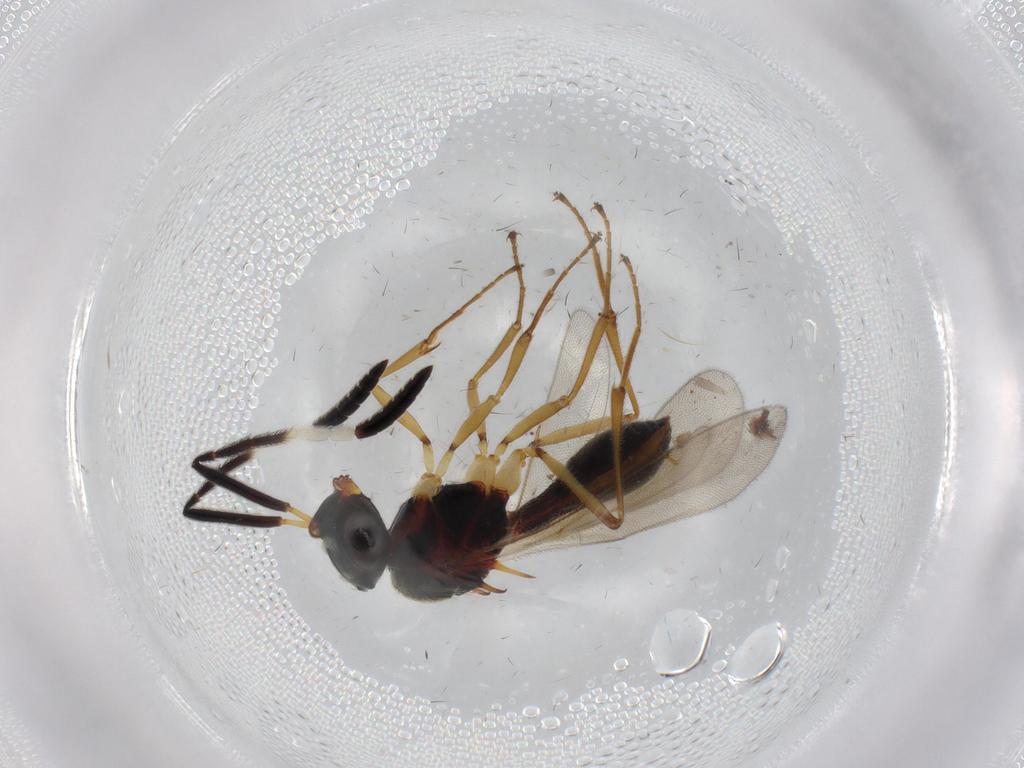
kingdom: Animalia
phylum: Arthropoda
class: Insecta
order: Hymenoptera
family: Scelionidae
